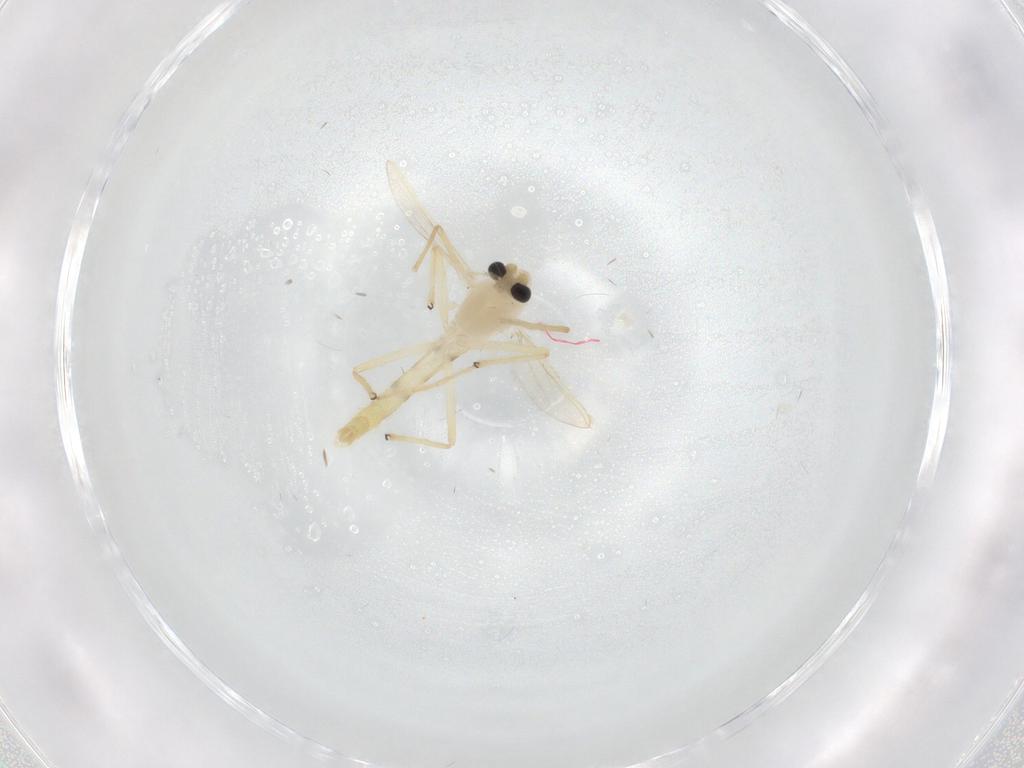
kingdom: Animalia
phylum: Arthropoda
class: Insecta
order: Diptera
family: Chironomidae
